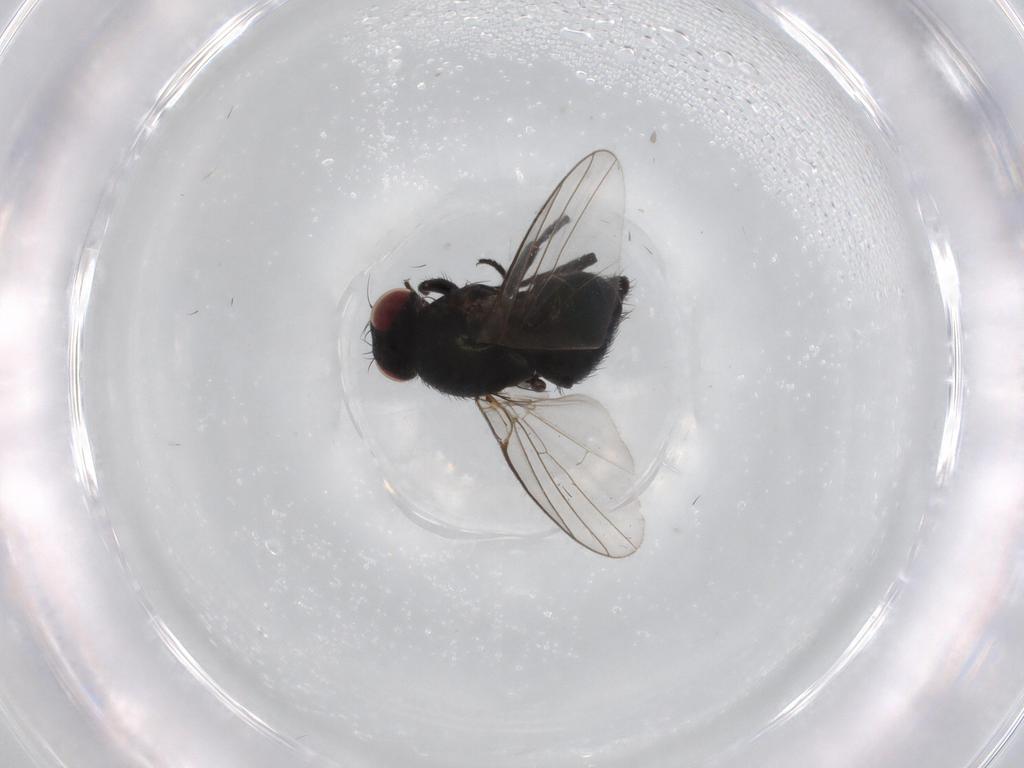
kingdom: Animalia
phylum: Arthropoda
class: Insecta
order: Diptera
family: Agromyzidae
